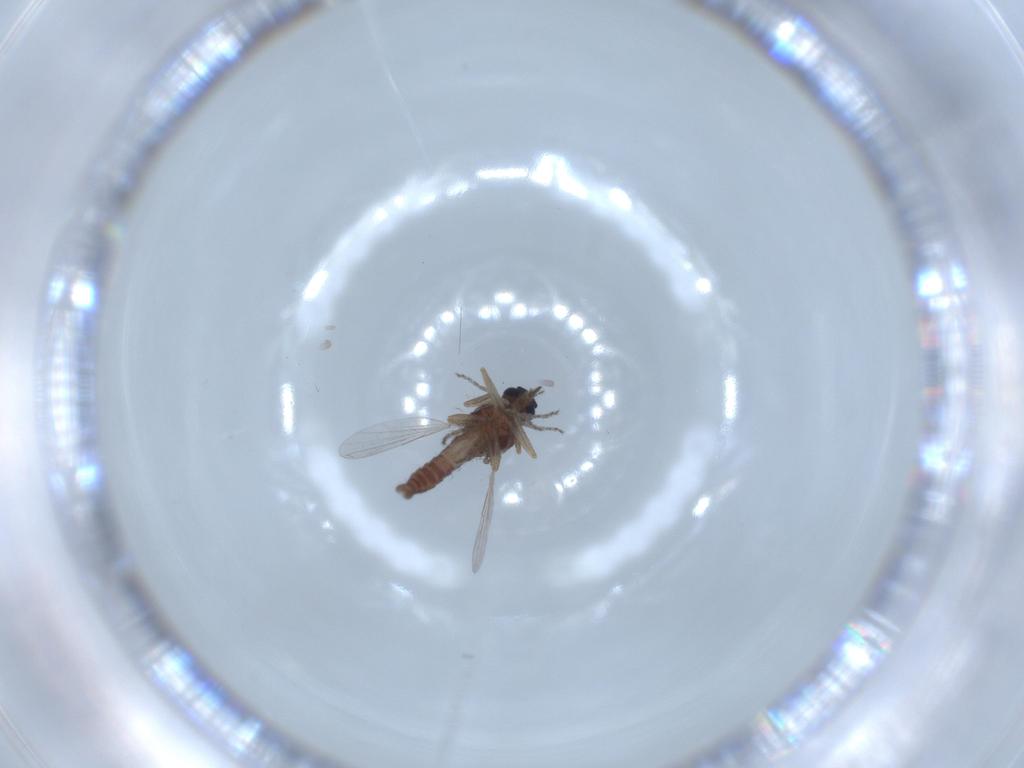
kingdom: Animalia
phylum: Arthropoda
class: Insecta
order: Diptera
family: Ceratopogonidae
